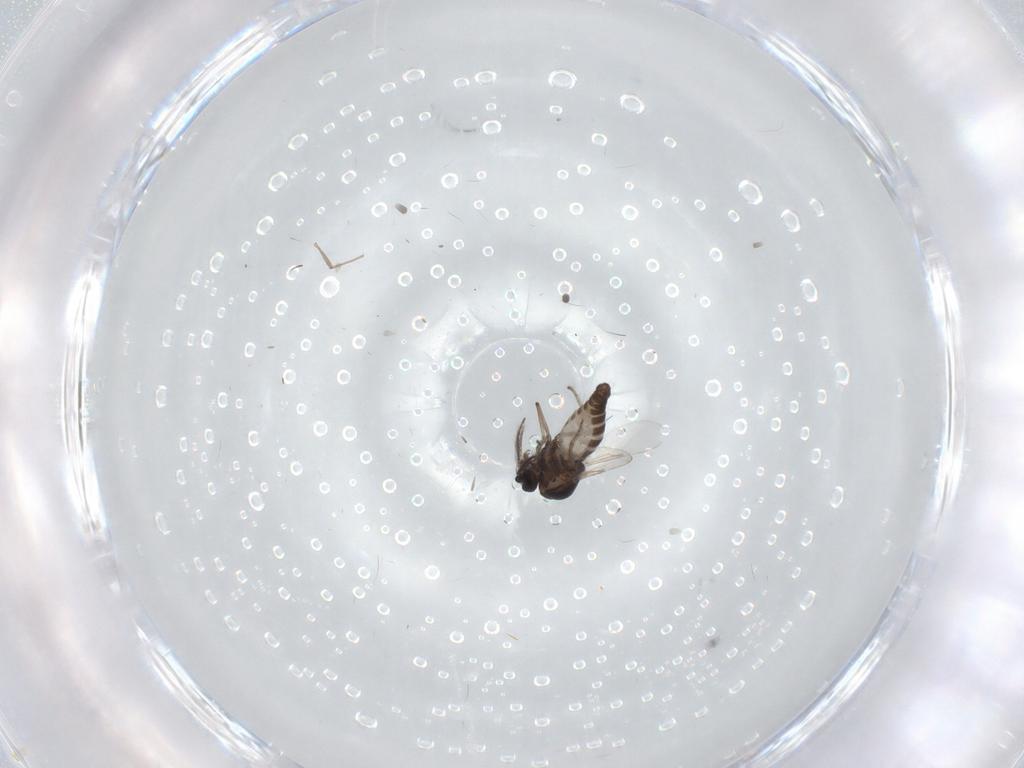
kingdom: Animalia
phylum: Arthropoda
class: Insecta
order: Diptera
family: Ceratopogonidae
